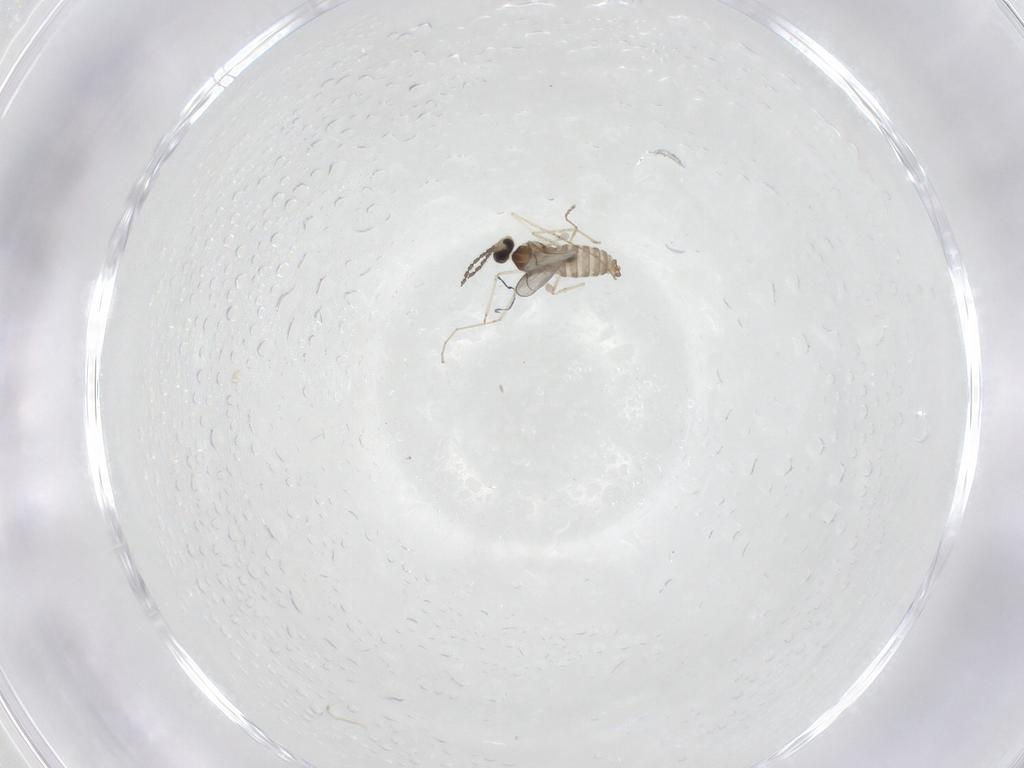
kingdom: Animalia
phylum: Arthropoda
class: Insecta
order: Diptera
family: Cecidomyiidae
